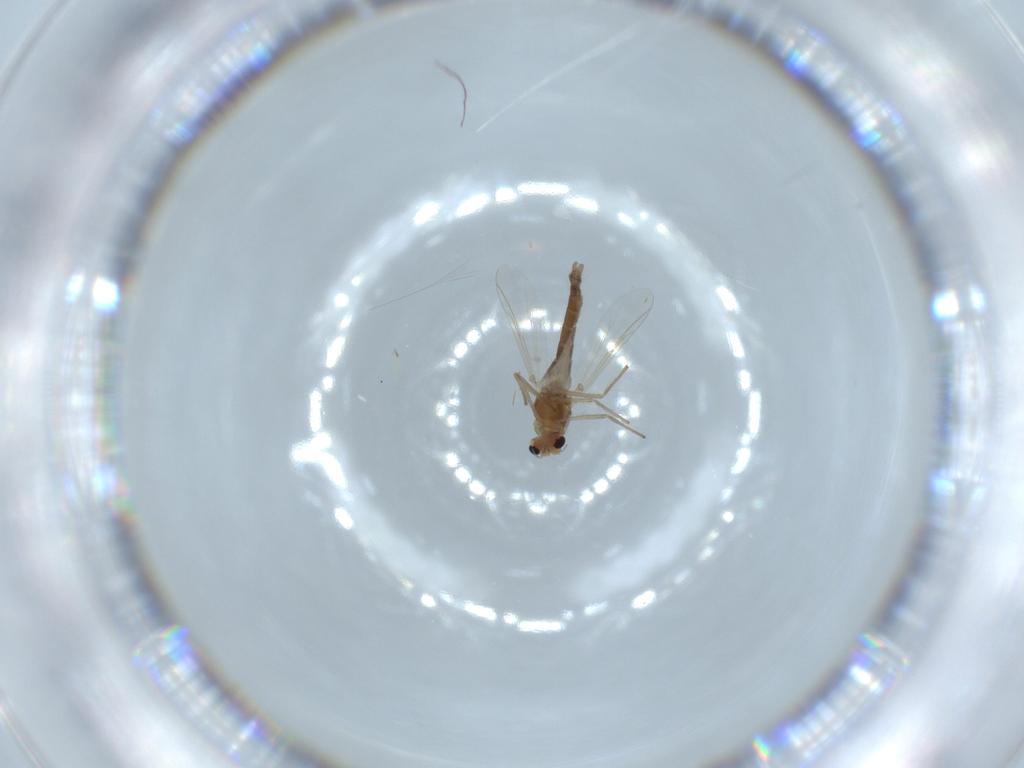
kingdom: Animalia
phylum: Arthropoda
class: Insecta
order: Diptera
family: Chironomidae
